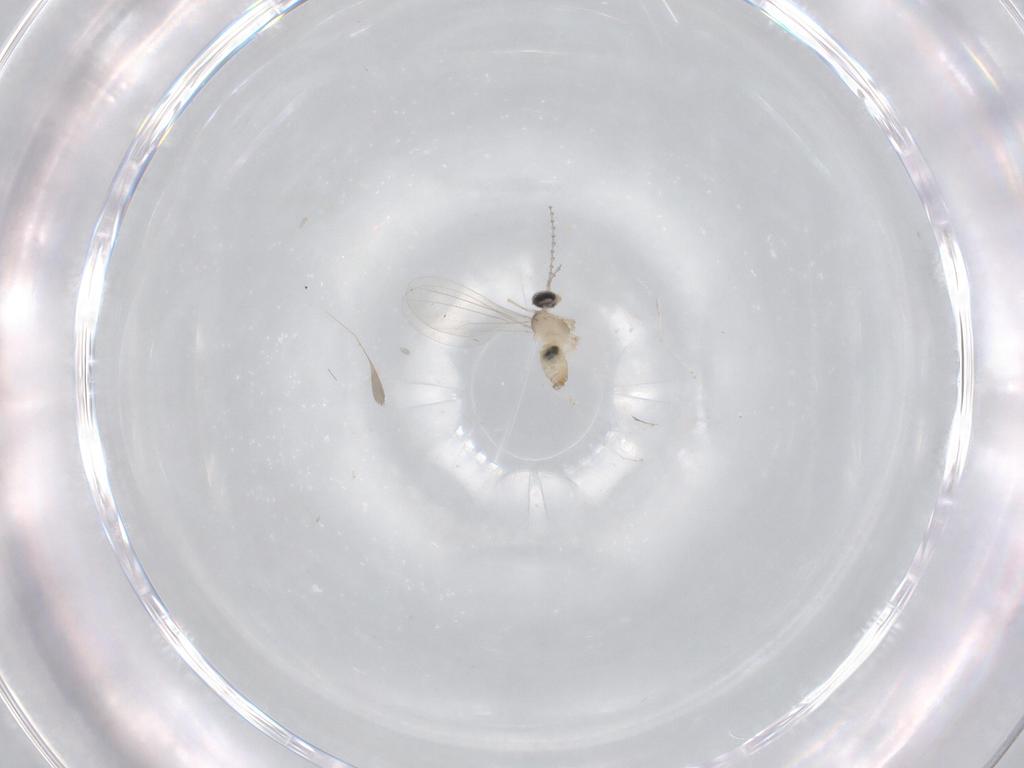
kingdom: Animalia
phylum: Arthropoda
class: Insecta
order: Diptera
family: Cecidomyiidae
